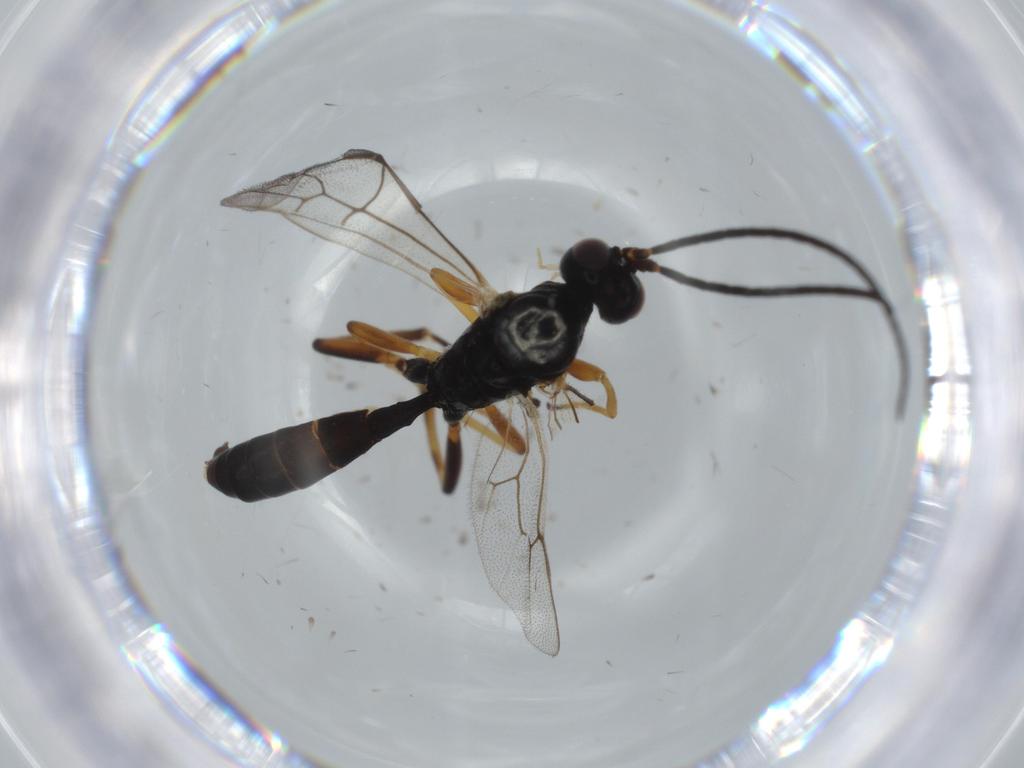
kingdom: Animalia
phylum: Arthropoda
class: Insecta
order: Hymenoptera
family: Ichneumonidae
